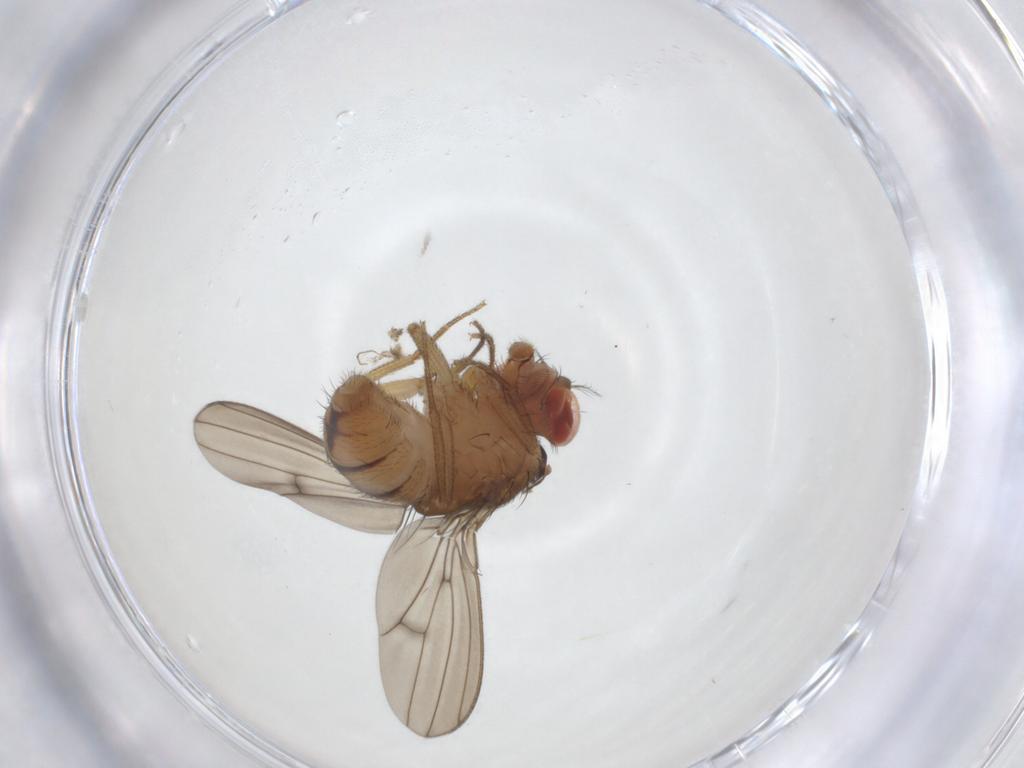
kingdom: Animalia
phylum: Arthropoda
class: Insecta
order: Diptera
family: Drosophilidae
